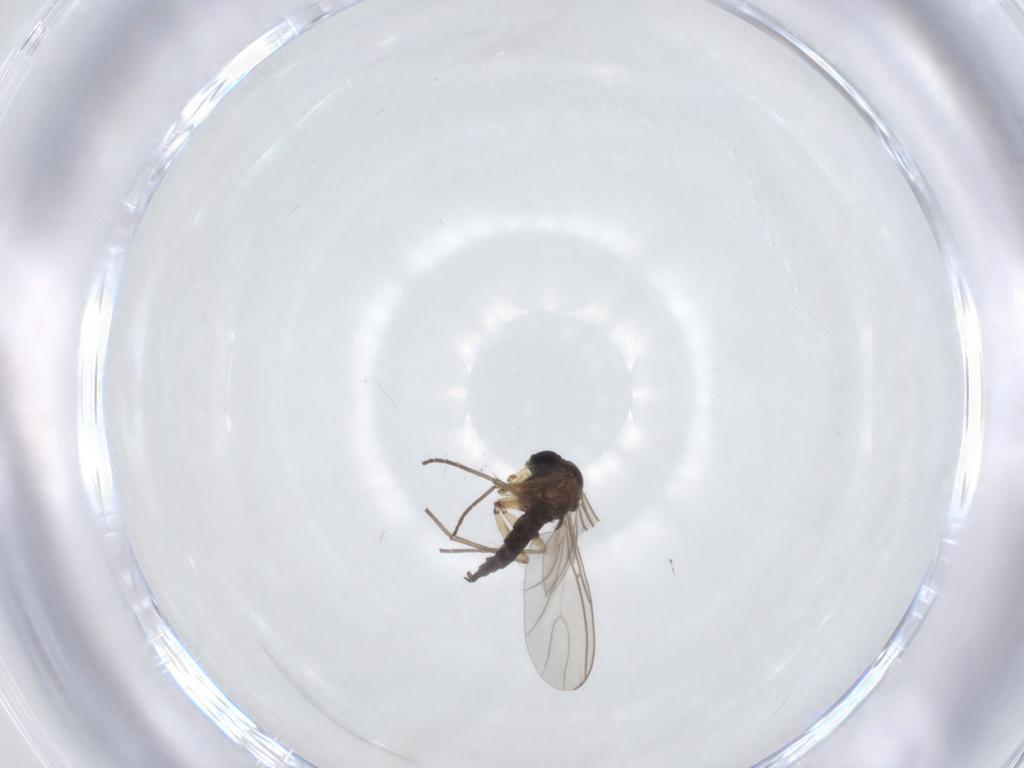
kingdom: Animalia
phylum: Arthropoda
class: Insecta
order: Diptera
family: Sciaridae
